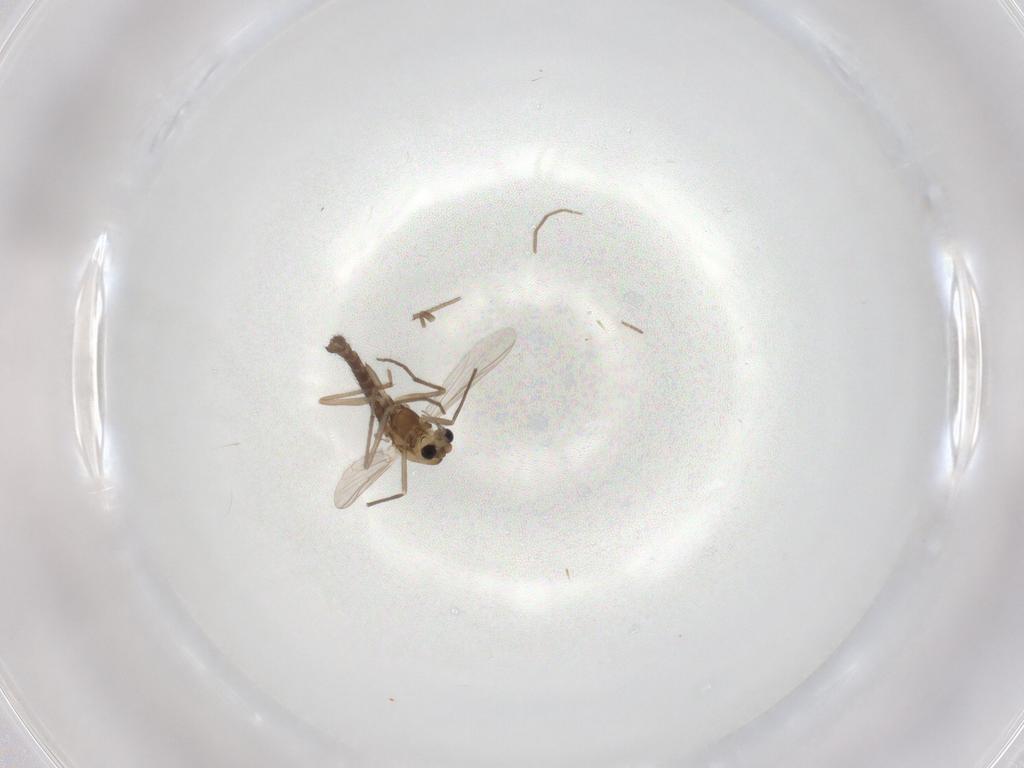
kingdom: Animalia
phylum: Arthropoda
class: Insecta
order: Diptera
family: Chironomidae
